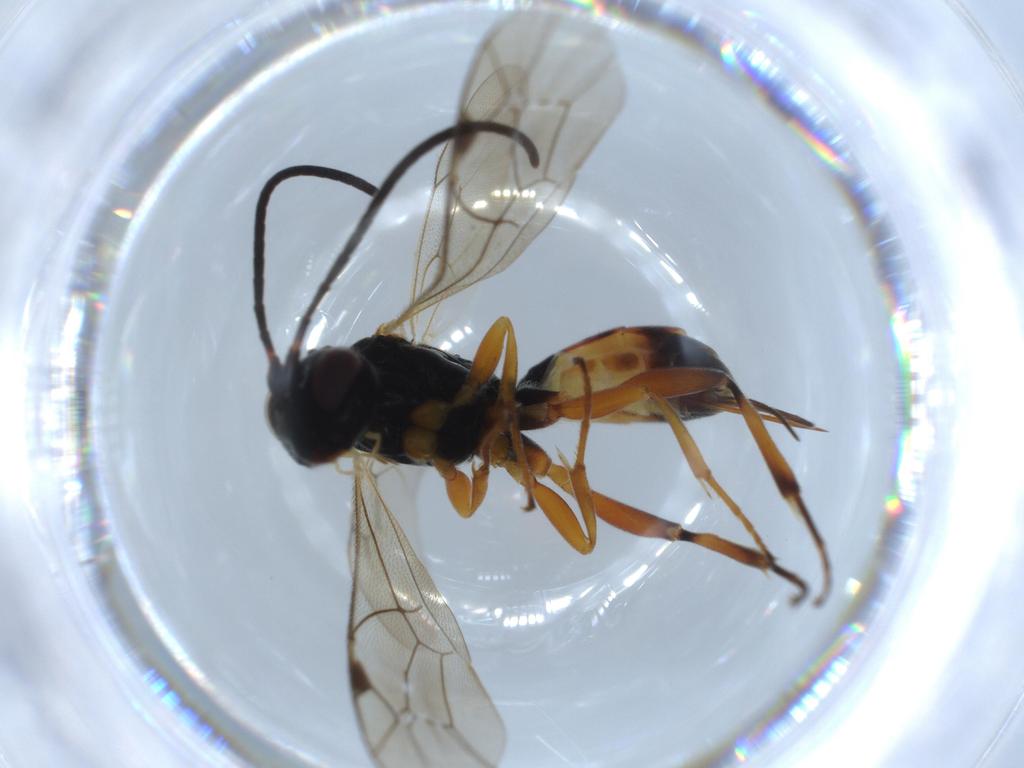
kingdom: Animalia
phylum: Arthropoda
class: Insecta
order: Hymenoptera
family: Ichneumonidae
